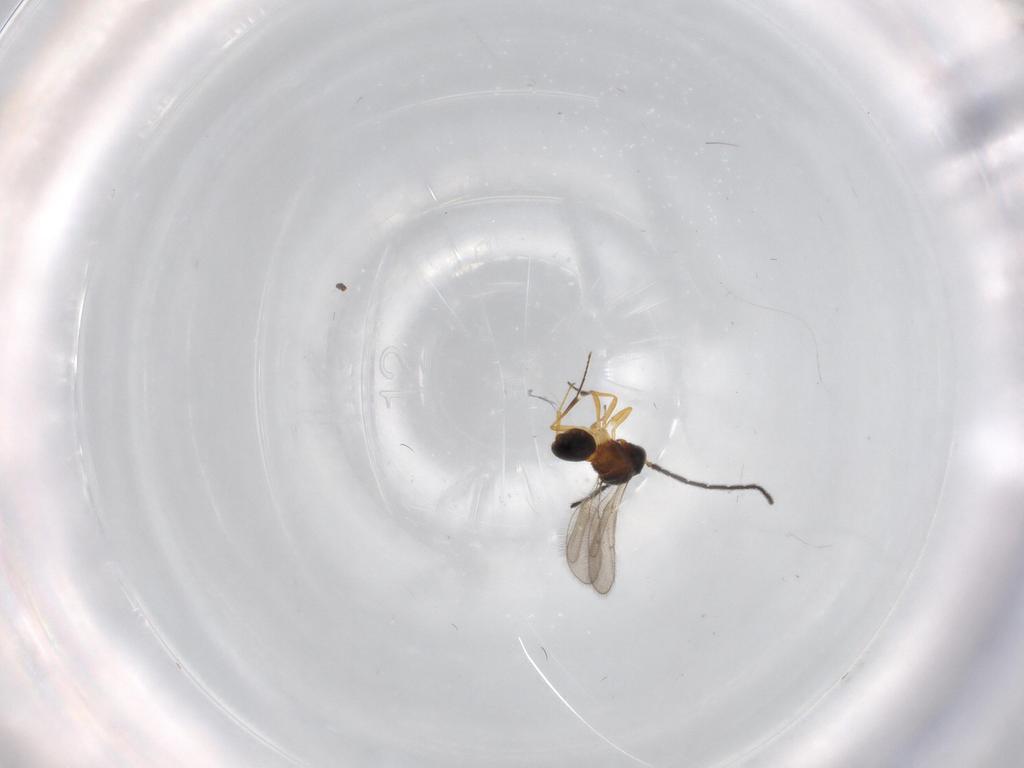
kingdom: Animalia
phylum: Arthropoda
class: Insecta
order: Hymenoptera
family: Scelionidae
